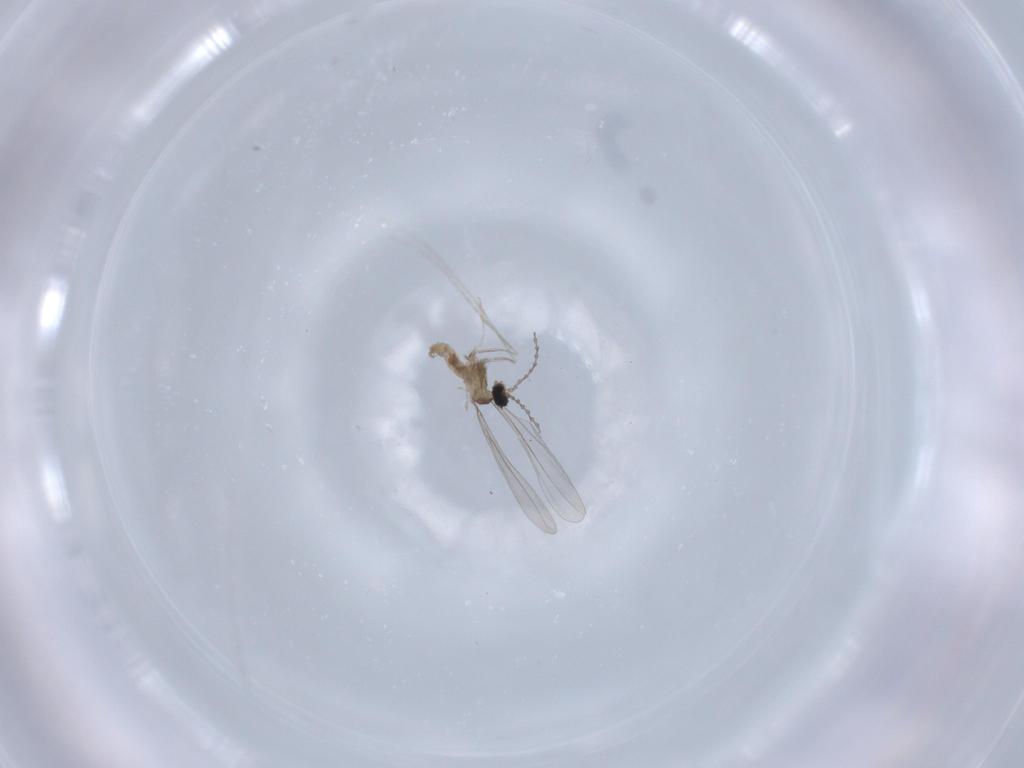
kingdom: Animalia
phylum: Arthropoda
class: Insecta
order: Diptera
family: Cecidomyiidae
